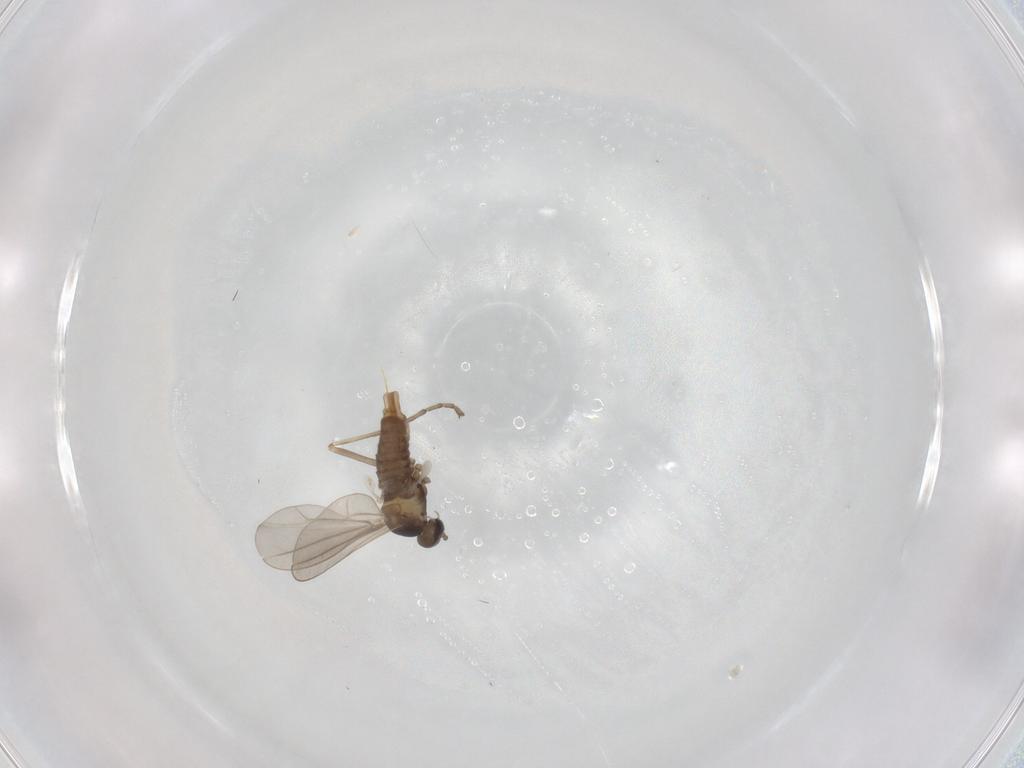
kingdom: Animalia
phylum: Arthropoda
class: Insecta
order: Diptera
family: Cecidomyiidae
